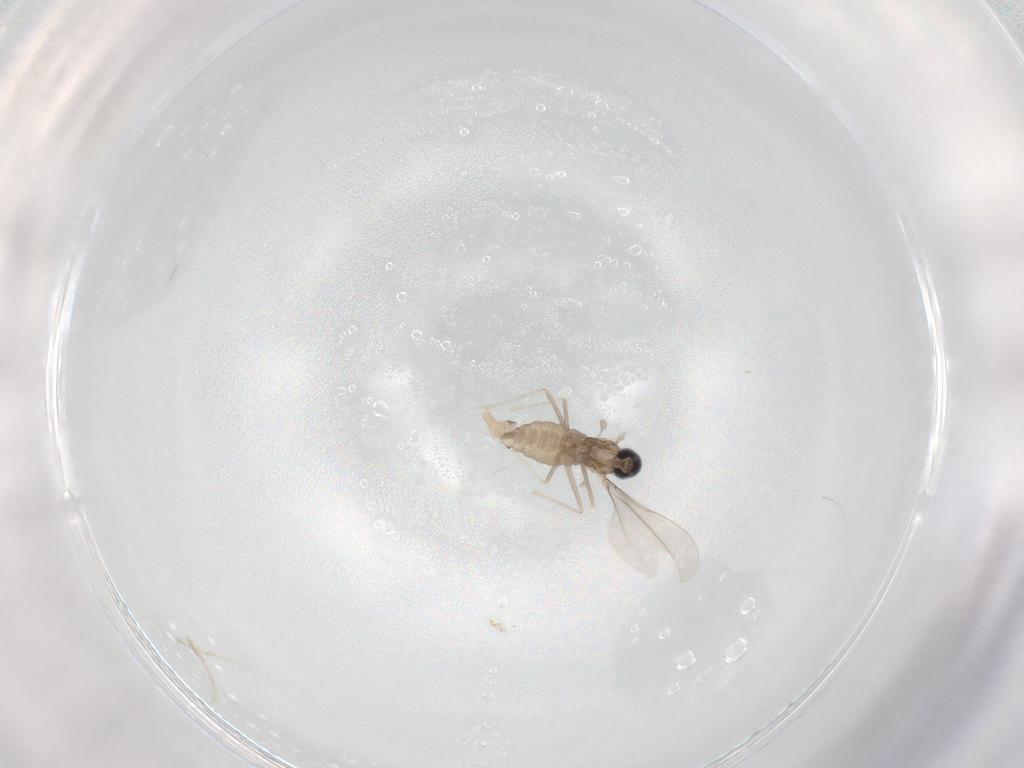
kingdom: Animalia
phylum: Arthropoda
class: Insecta
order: Diptera
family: Cecidomyiidae
